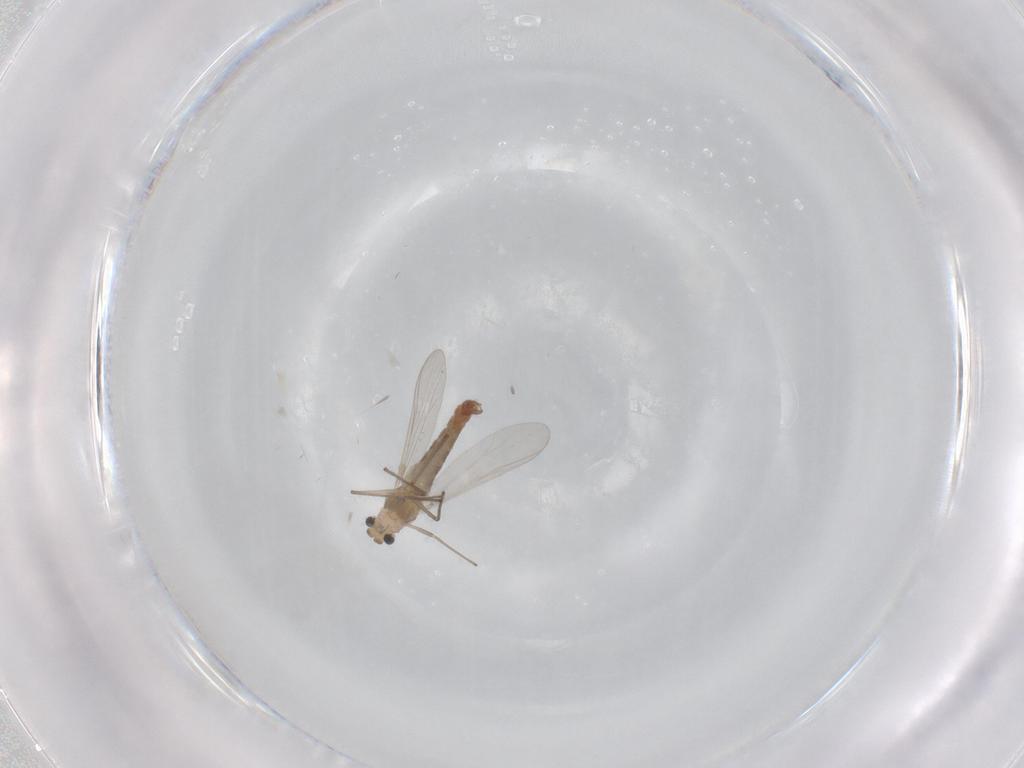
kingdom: Animalia
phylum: Arthropoda
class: Insecta
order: Diptera
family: Chironomidae
